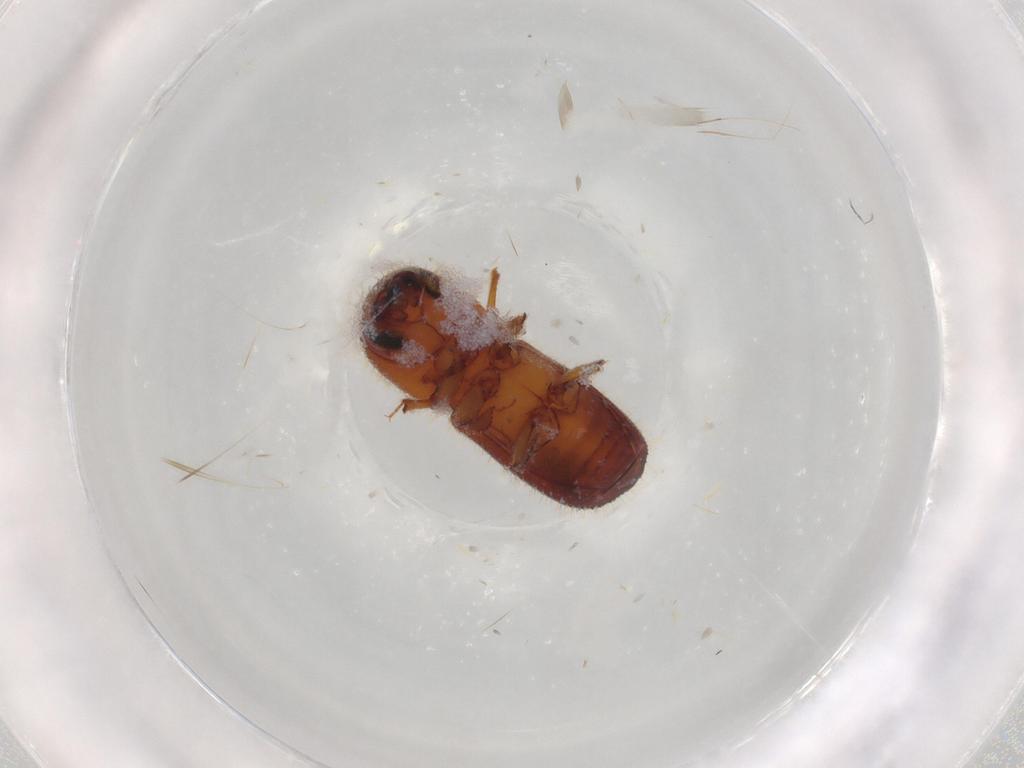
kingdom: Animalia
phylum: Arthropoda
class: Insecta
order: Coleoptera
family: Curculionidae
